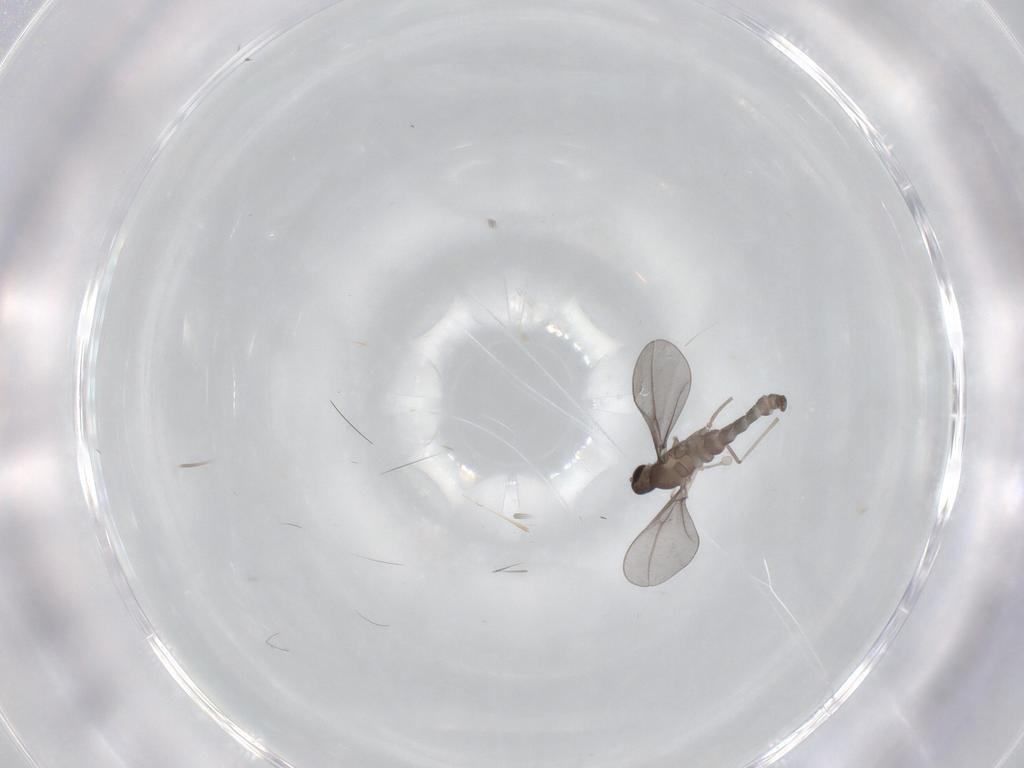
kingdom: Animalia
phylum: Arthropoda
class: Insecta
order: Diptera
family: Cecidomyiidae
